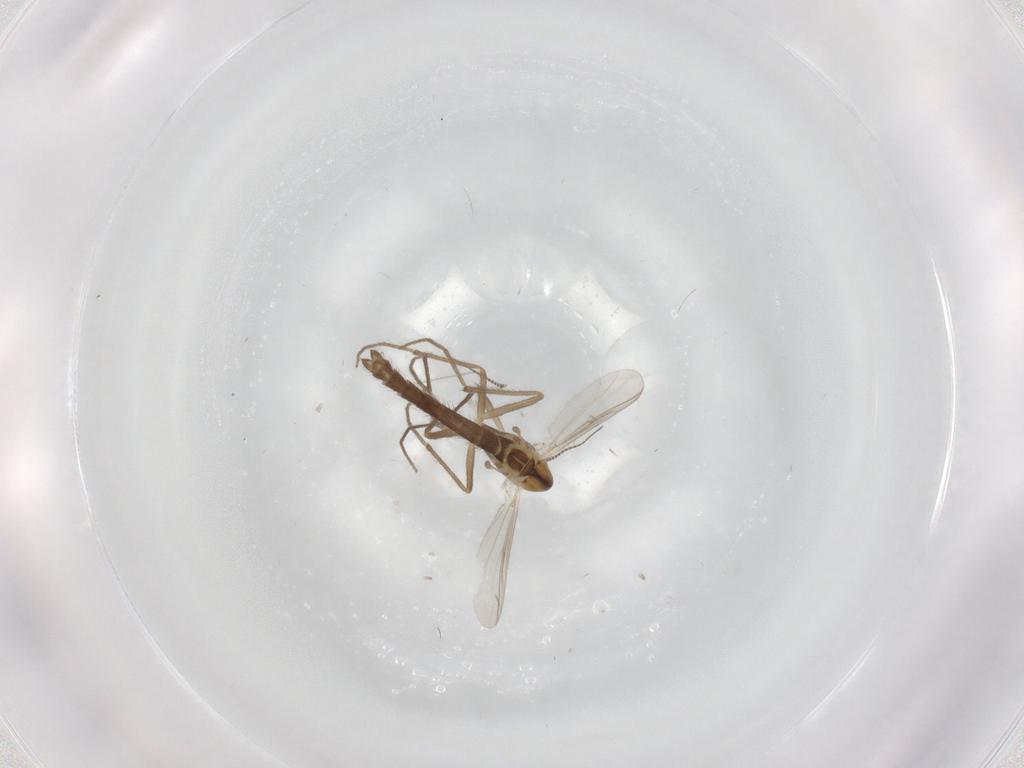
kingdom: Animalia
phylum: Arthropoda
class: Insecta
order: Diptera
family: Chironomidae
